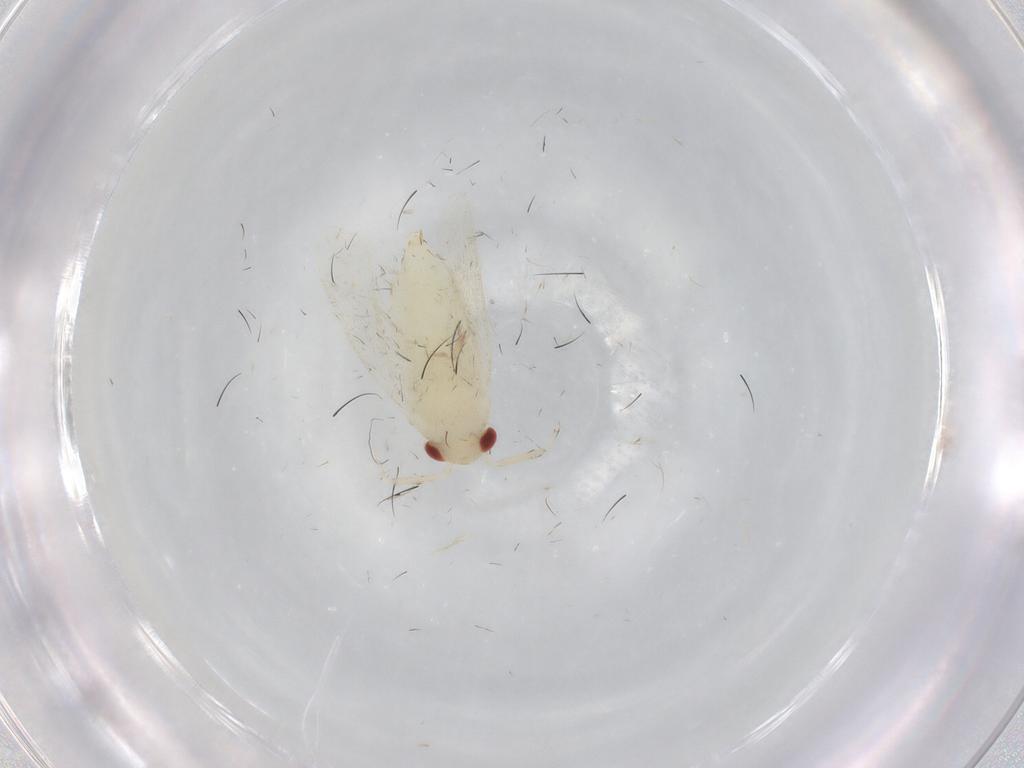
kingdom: Animalia
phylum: Arthropoda
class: Insecta
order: Hemiptera
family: Miridae
